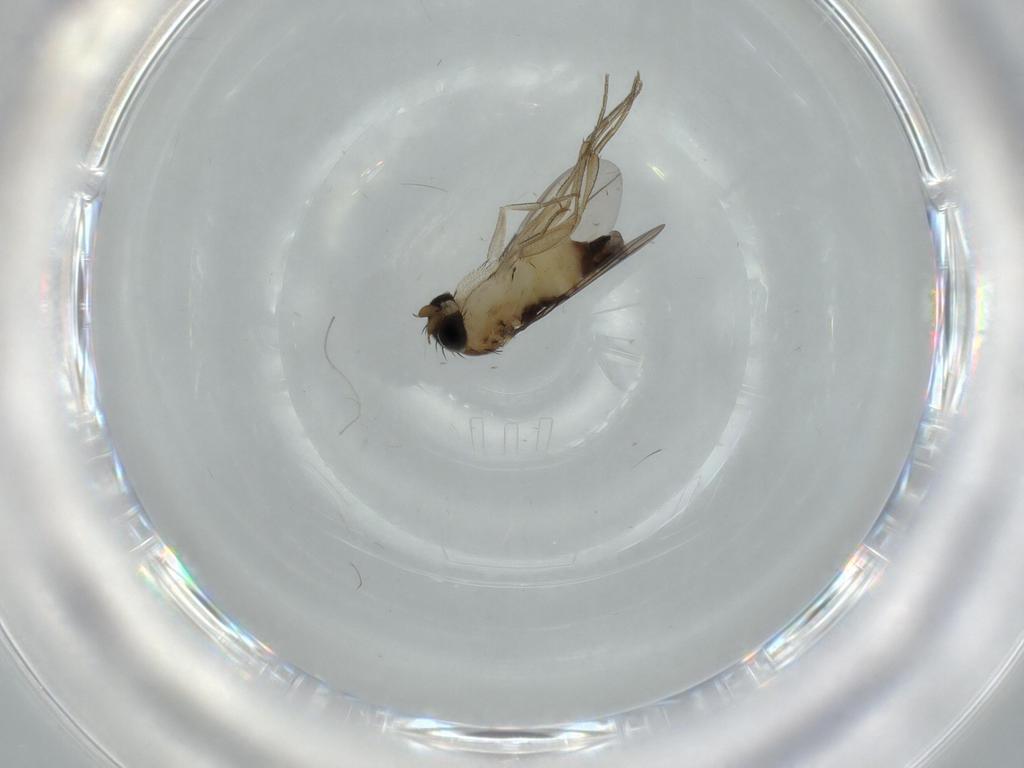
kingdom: Animalia
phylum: Arthropoda
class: Insecta
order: Diptera
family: Phoridae
